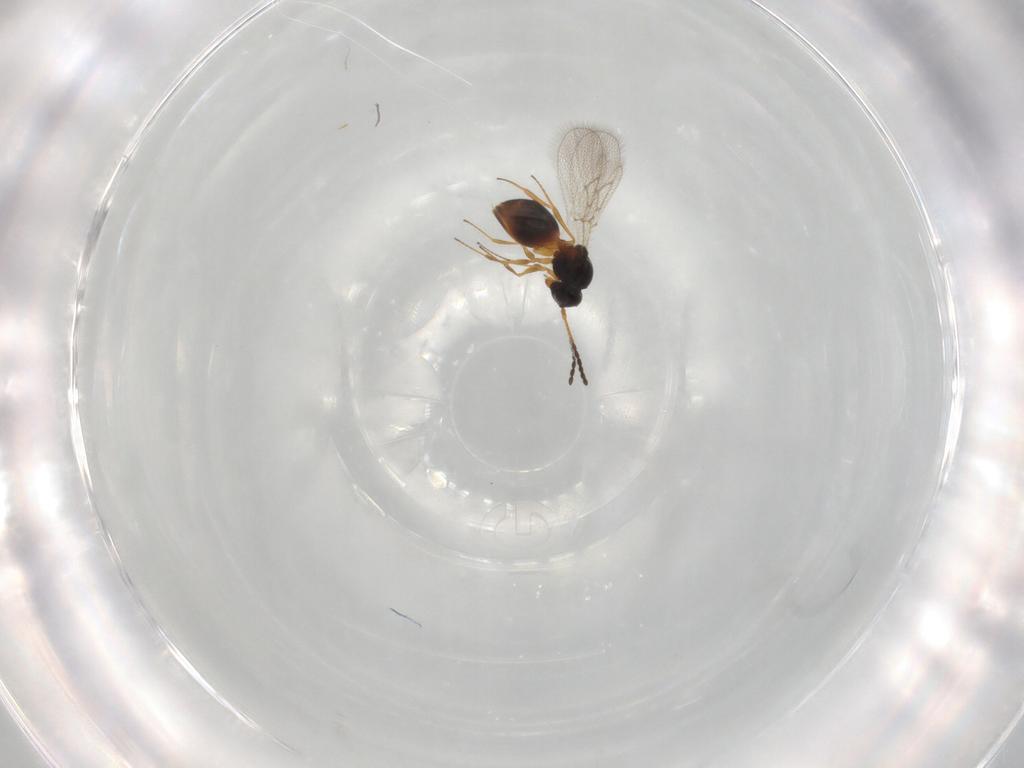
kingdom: Animalia
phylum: Arthropoda
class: Insecta
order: Hymenoptera
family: Figitidae
